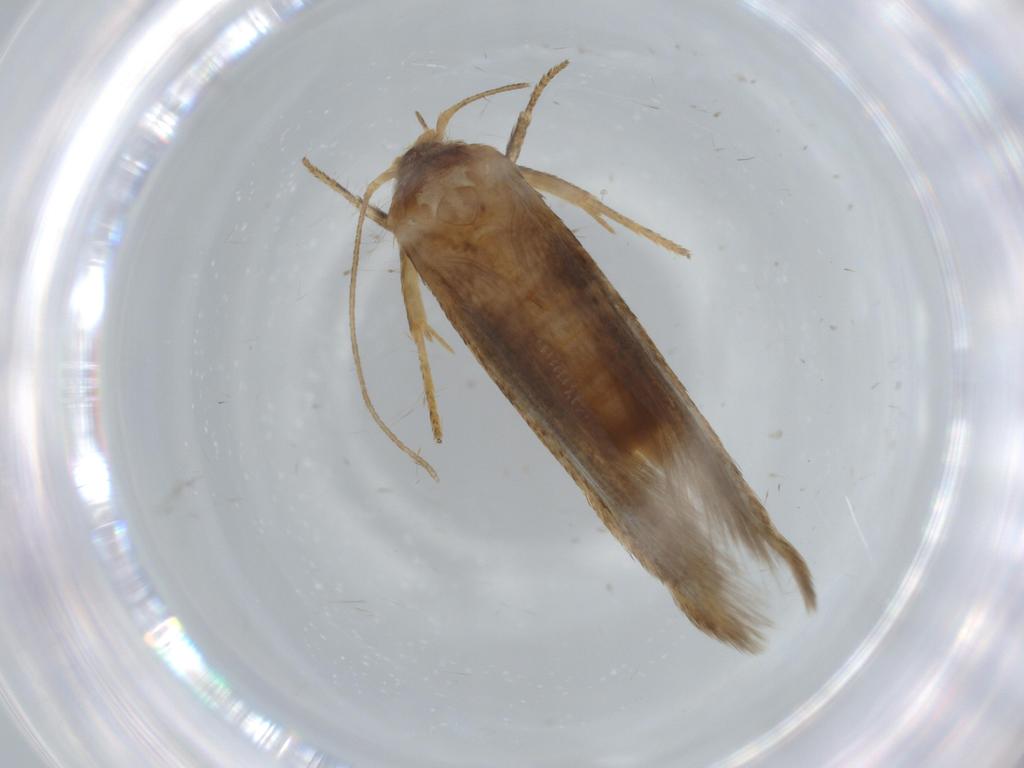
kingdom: Animalia
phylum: Arthropoda
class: Insecta
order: Lepidoptera
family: Coleophoridae
